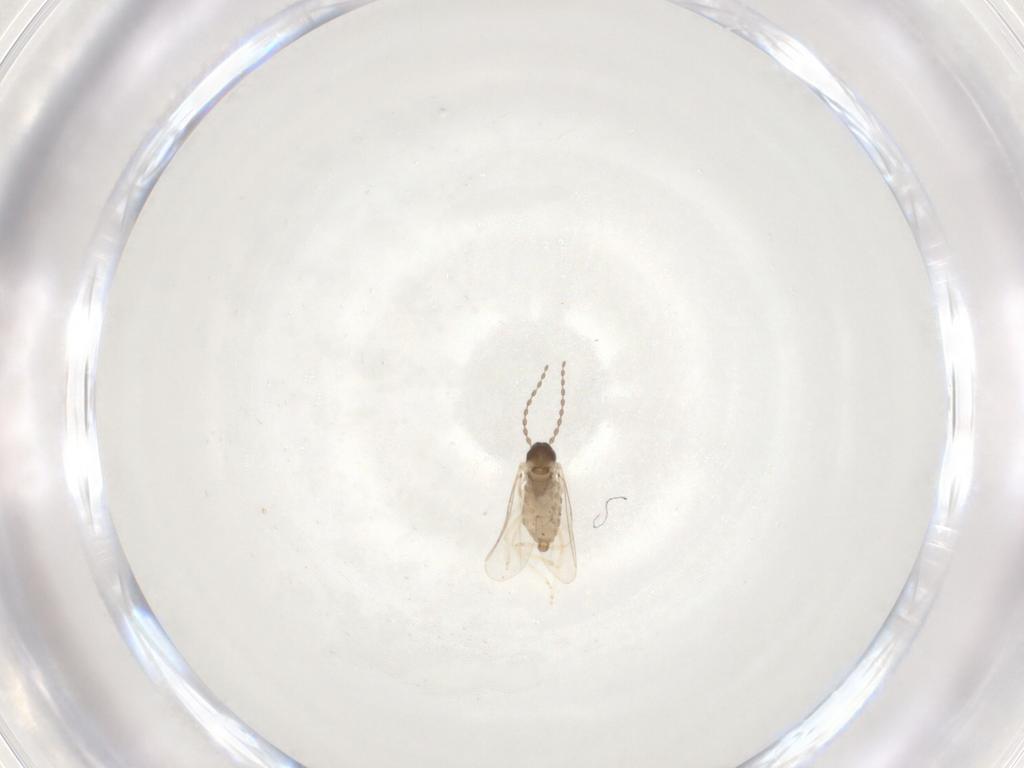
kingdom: Animalia
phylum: Arthropoda
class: Insecta
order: Diptera
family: Cecidomyiidae
